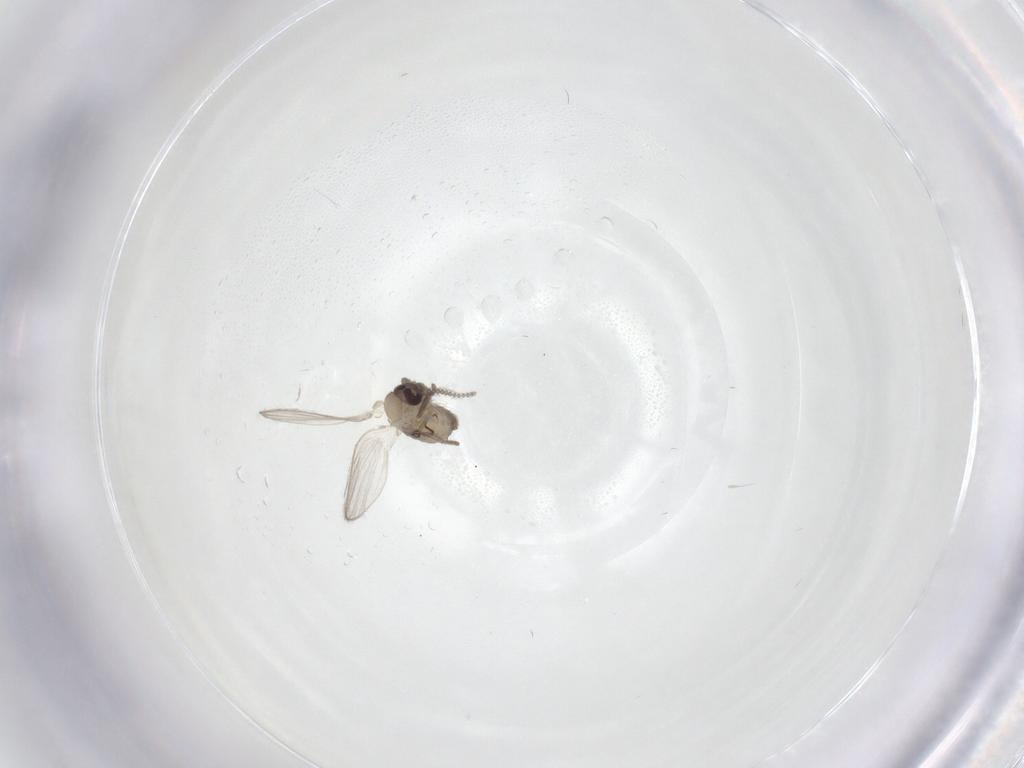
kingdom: Animalia
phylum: Arthropoda
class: Insecta
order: Diptera
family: Psychodidae
